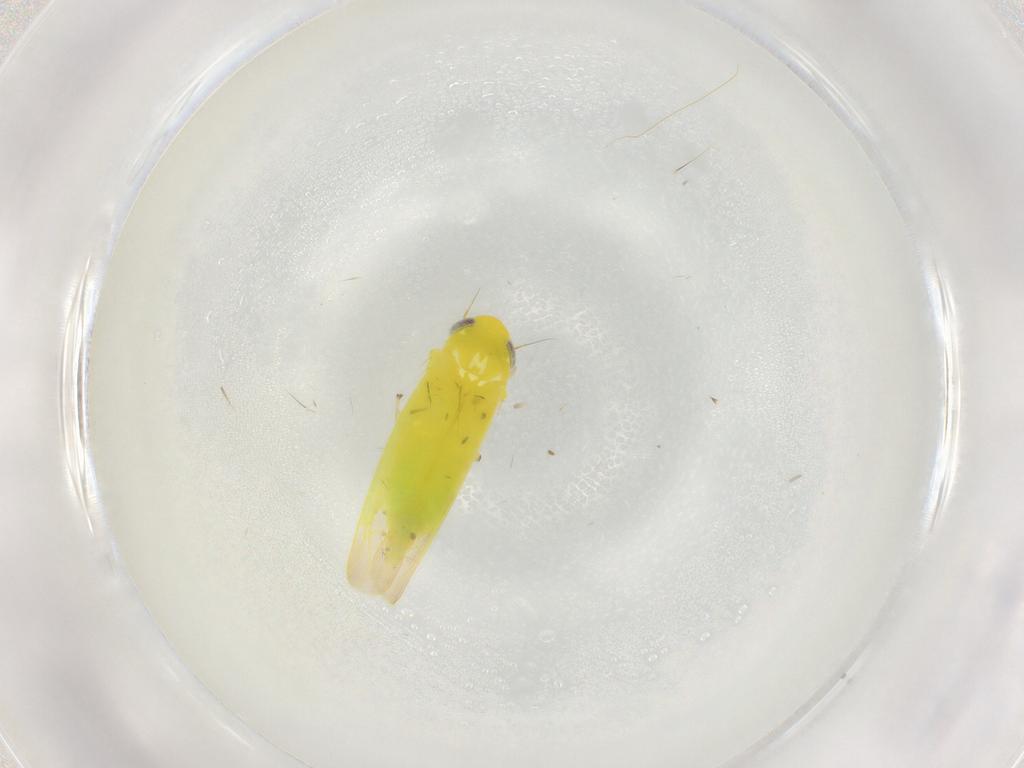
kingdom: Animalia
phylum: Arthropoda
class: Insecta
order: Hemiptera
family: Cicadellidae
